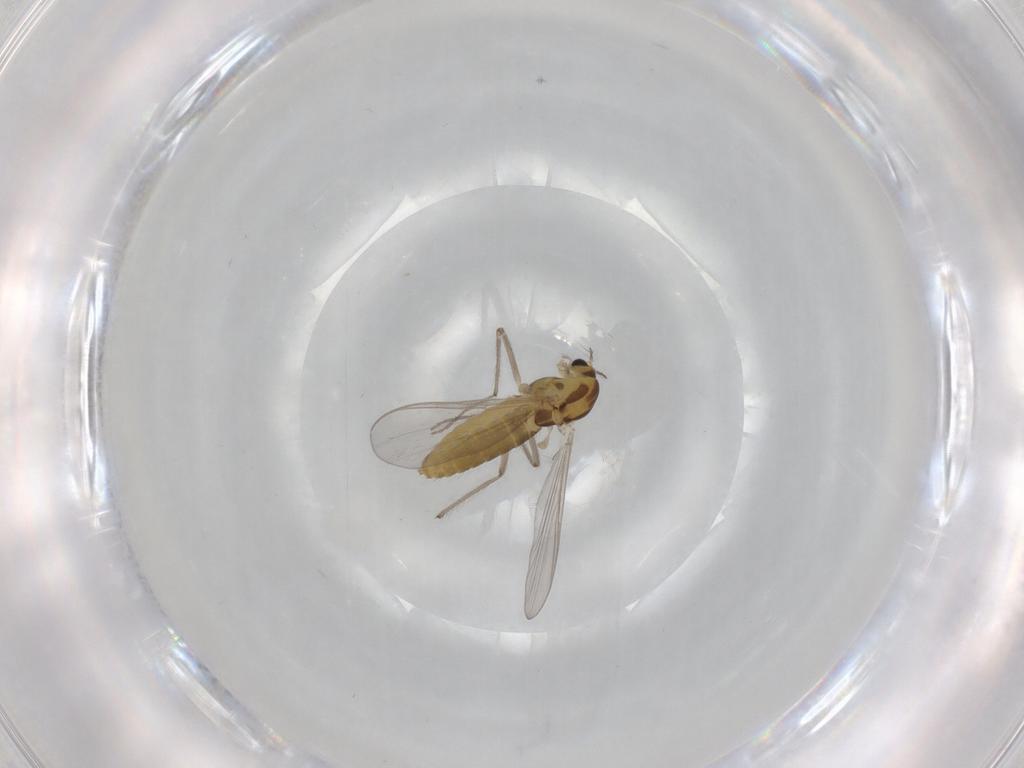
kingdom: Animalia
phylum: Arthropoda
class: Insecta
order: Diptera
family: Chironomidae
